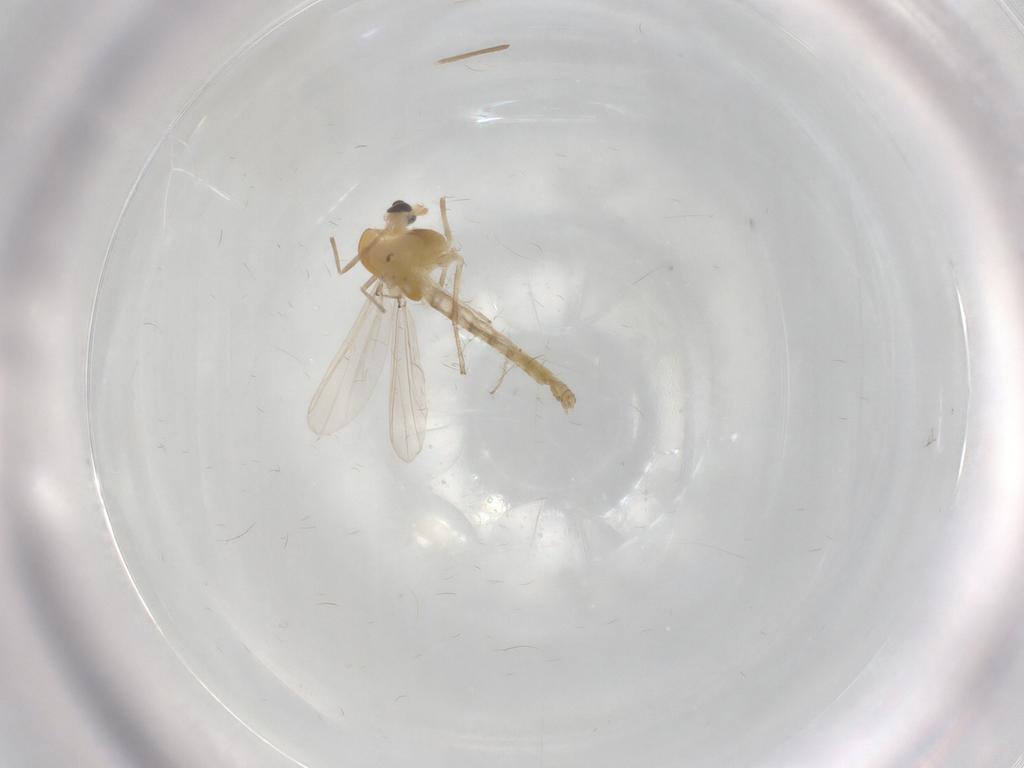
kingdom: Animalia
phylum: Arthropoda
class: Insecta
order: Diptera
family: Chironomidae
